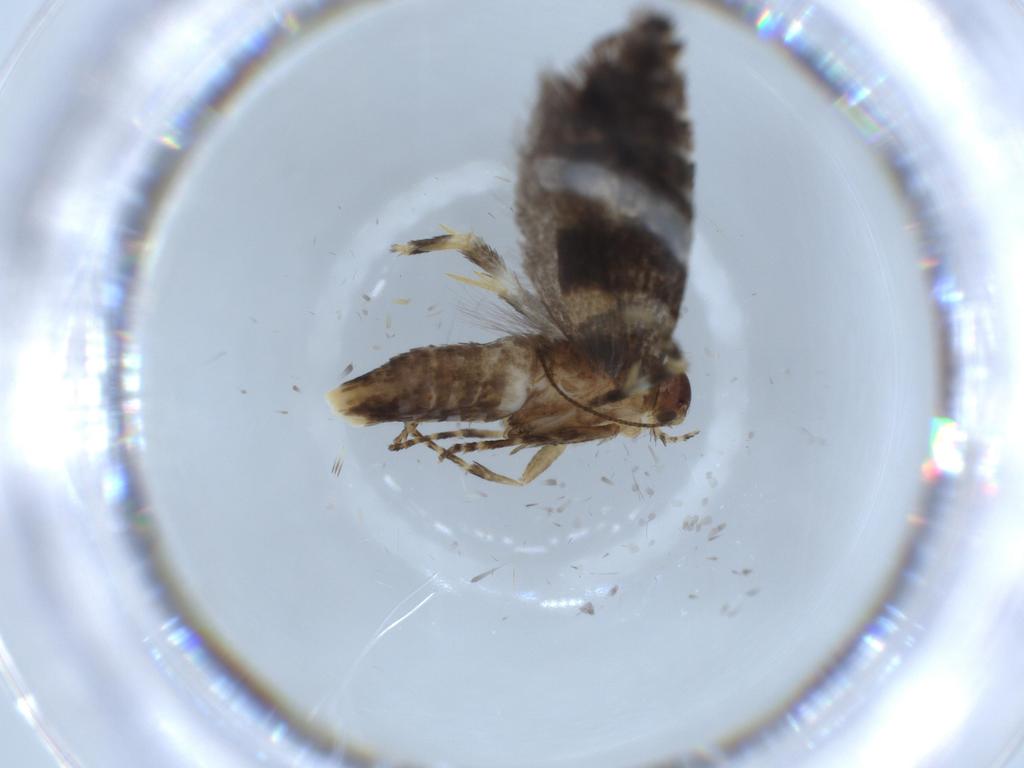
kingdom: Animalia
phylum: Arthropoda
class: Insecta
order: Lepidoptera
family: Glyphipterigidae
